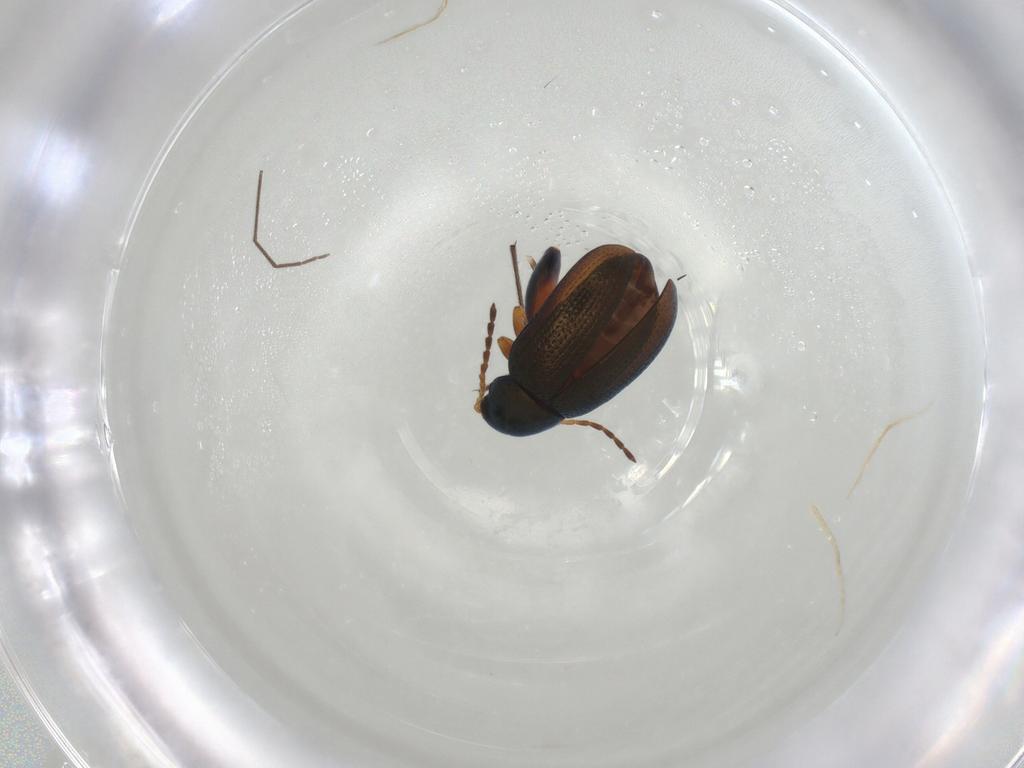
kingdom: Animalia
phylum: Arthropoda
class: Insecta
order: Coleoptera
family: Chrysomelidae
